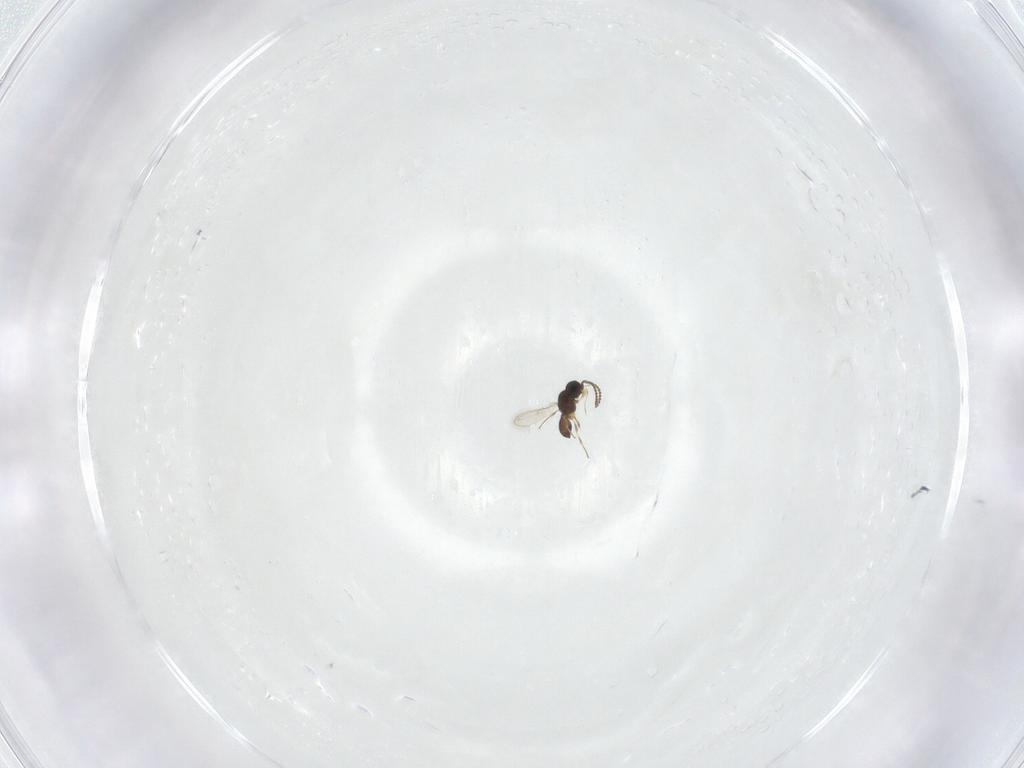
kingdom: Animalia
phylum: Arthropoda
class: Insecta
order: Hymenoptera
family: Scelionidae
